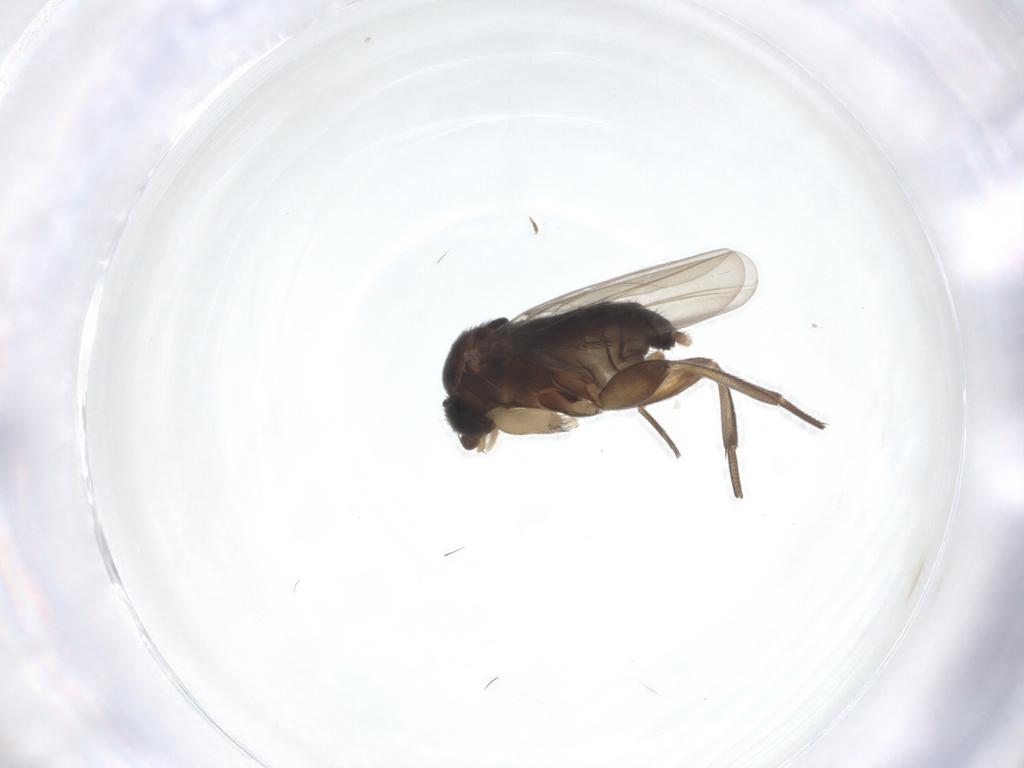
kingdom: Animalia
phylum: Arthropoda
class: Insecta
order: Diptera
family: Phoridae
